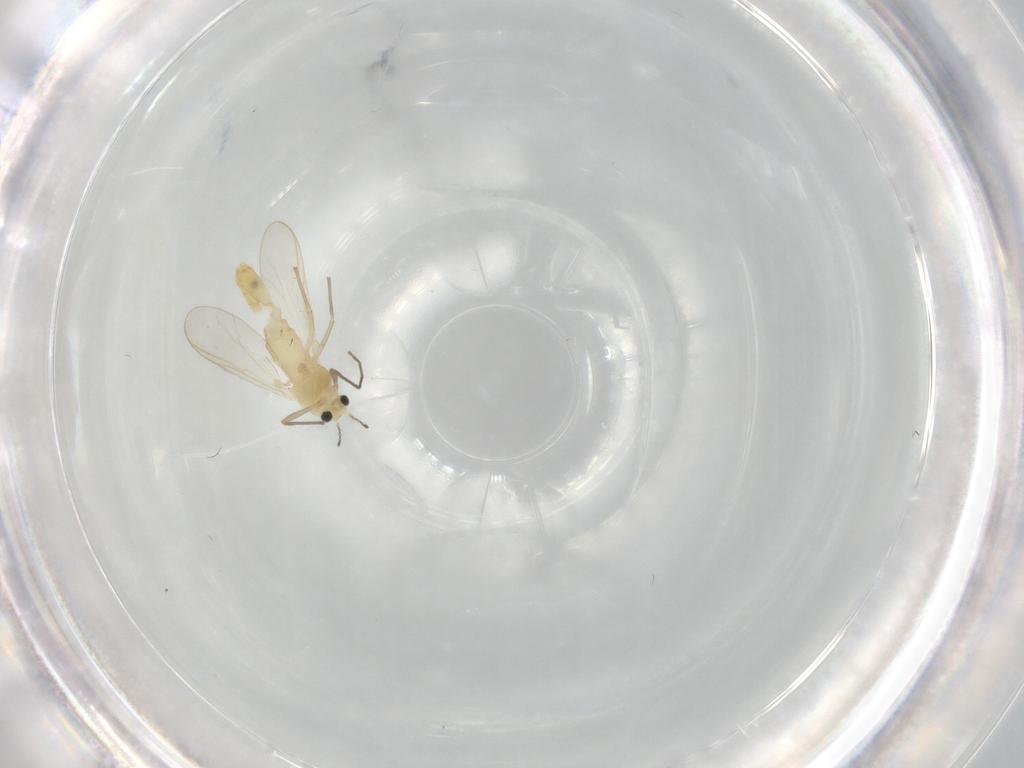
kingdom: Animalia
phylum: Arthropoda
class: Insecta
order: Diptera
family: Chironomidae
